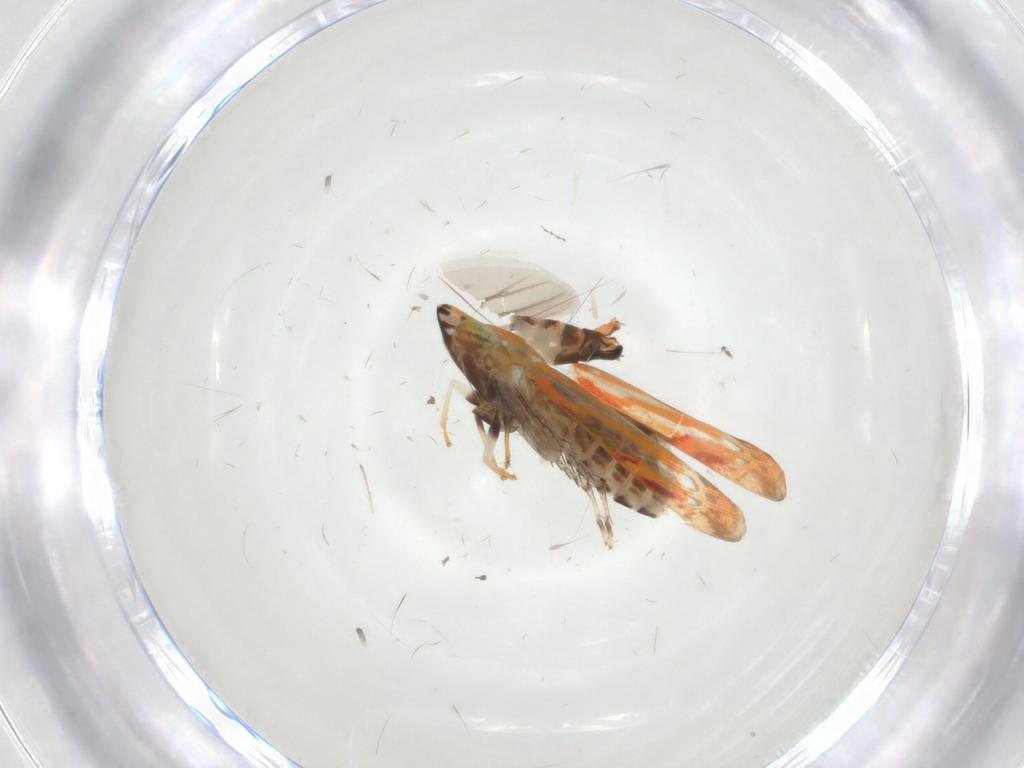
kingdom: Animalia
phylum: Arthropoda
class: Insecta
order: Hemiptera
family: Cicadellidae
